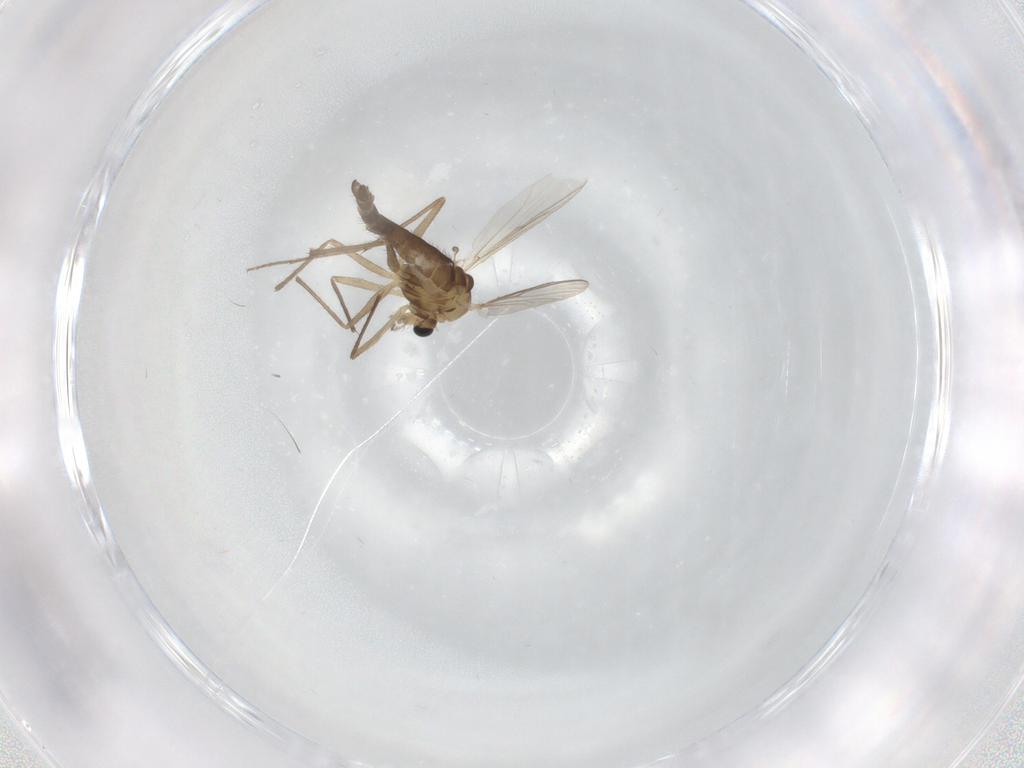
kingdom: Animalia
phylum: Arthropoda
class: Insecta
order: Diptera
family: Chironomidae
